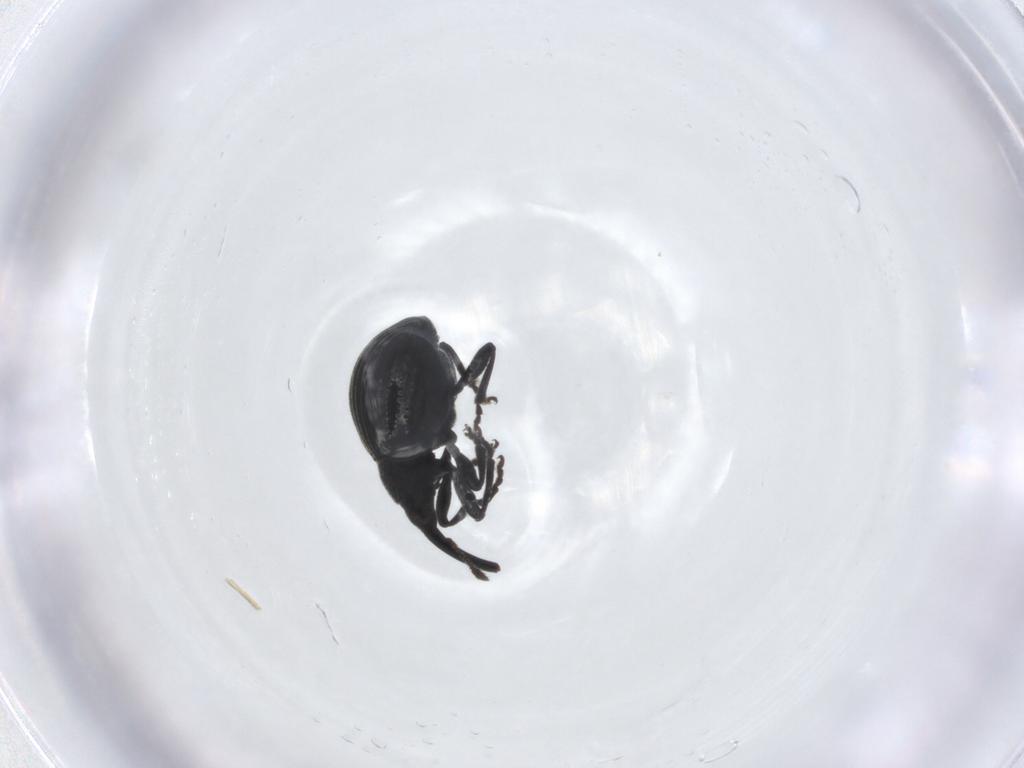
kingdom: Animalia
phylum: Arthropoda
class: Insecta
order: Coleoptera
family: Brentidae
